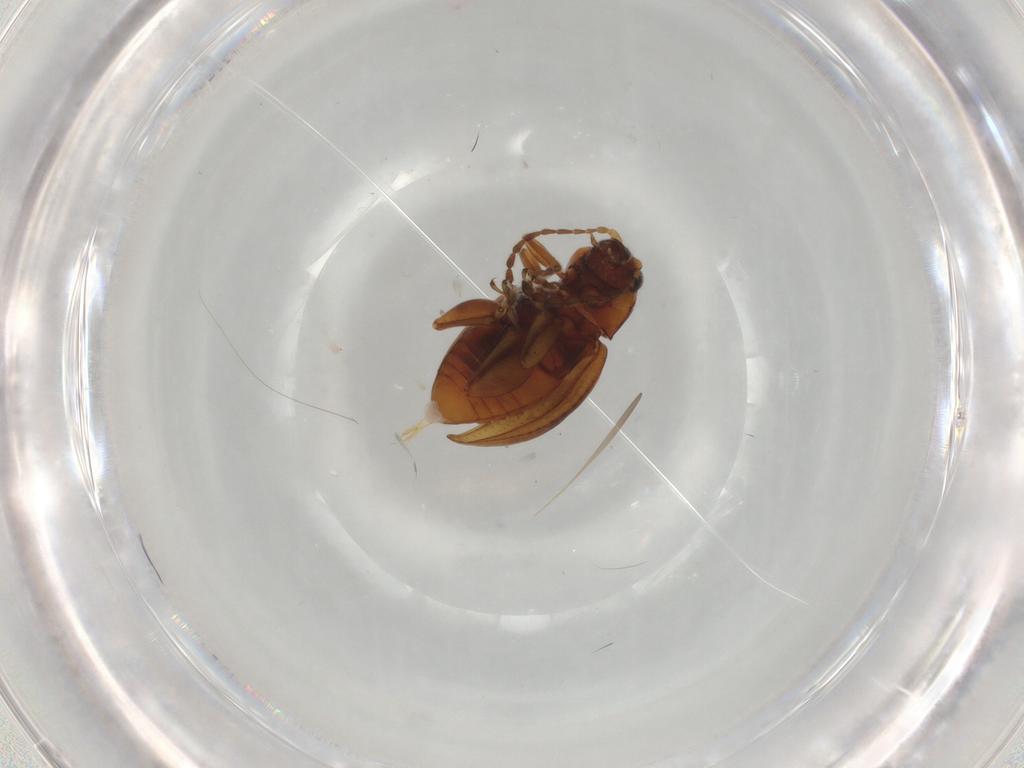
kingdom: Animalia
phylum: Arthropoda
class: Insecta
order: Coleoptera
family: Chrysomelidae
